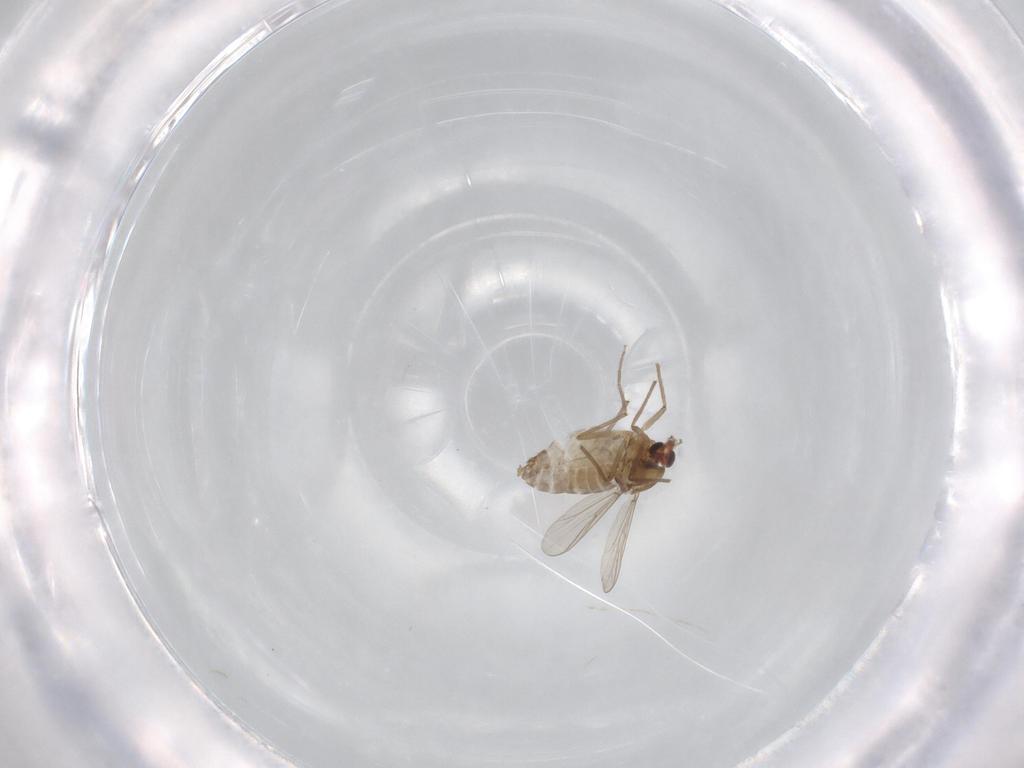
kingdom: Animalia
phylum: Arthropoda
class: Insecta
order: Diptera
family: Chironomidae
